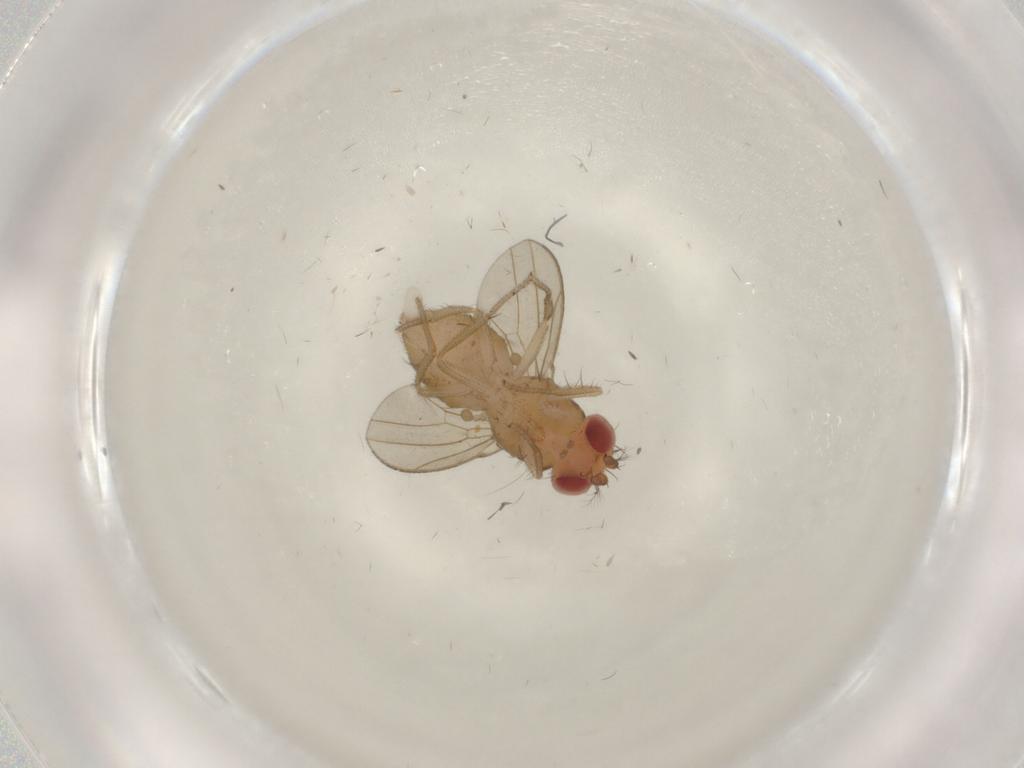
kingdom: Animalia
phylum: Arthropoda
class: Insecta
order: Diptera
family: Drosophilidae
